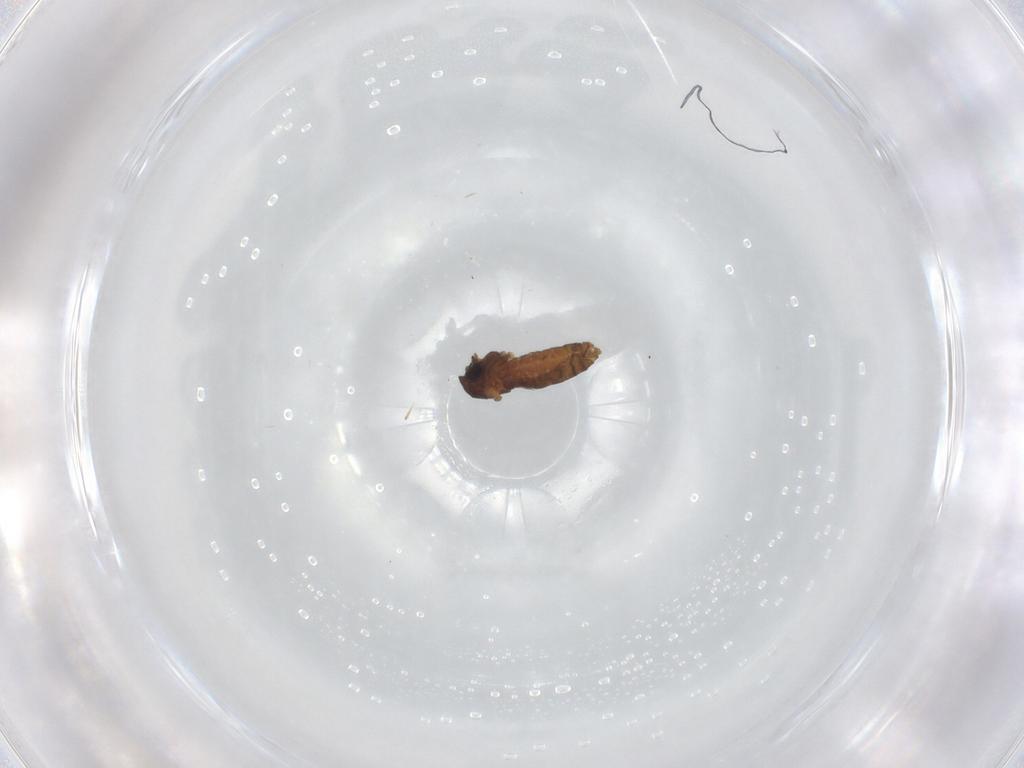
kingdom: Animalia
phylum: Arthropoda
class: Insecta
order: Diptera
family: Chironomidae
